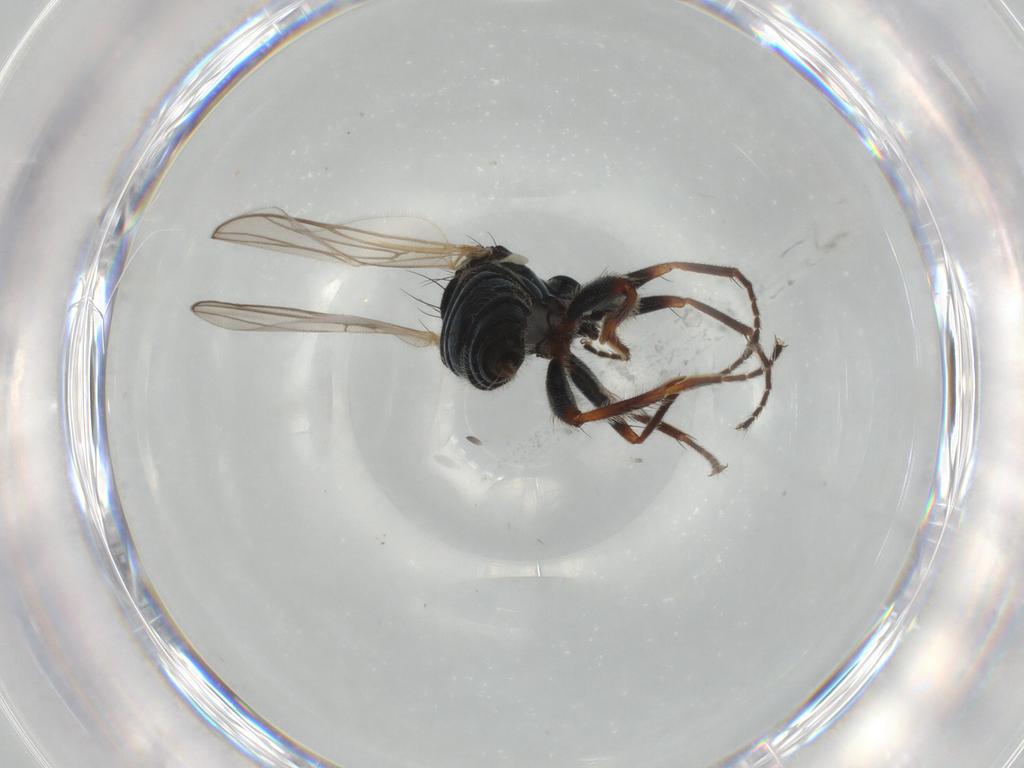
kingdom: Animalia
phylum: Arthropoda
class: Insecta
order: Diptera
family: Hybotidae
